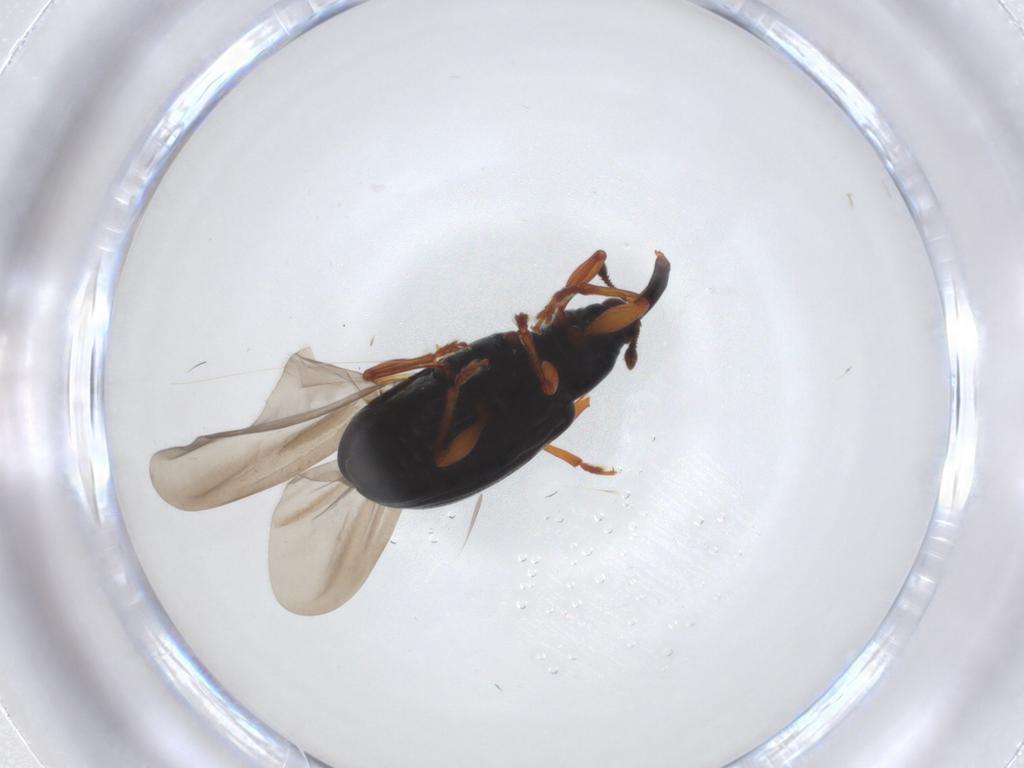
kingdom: Animalia
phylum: Arthropoda
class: Insecta
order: Coleoptera
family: Curculionidae
